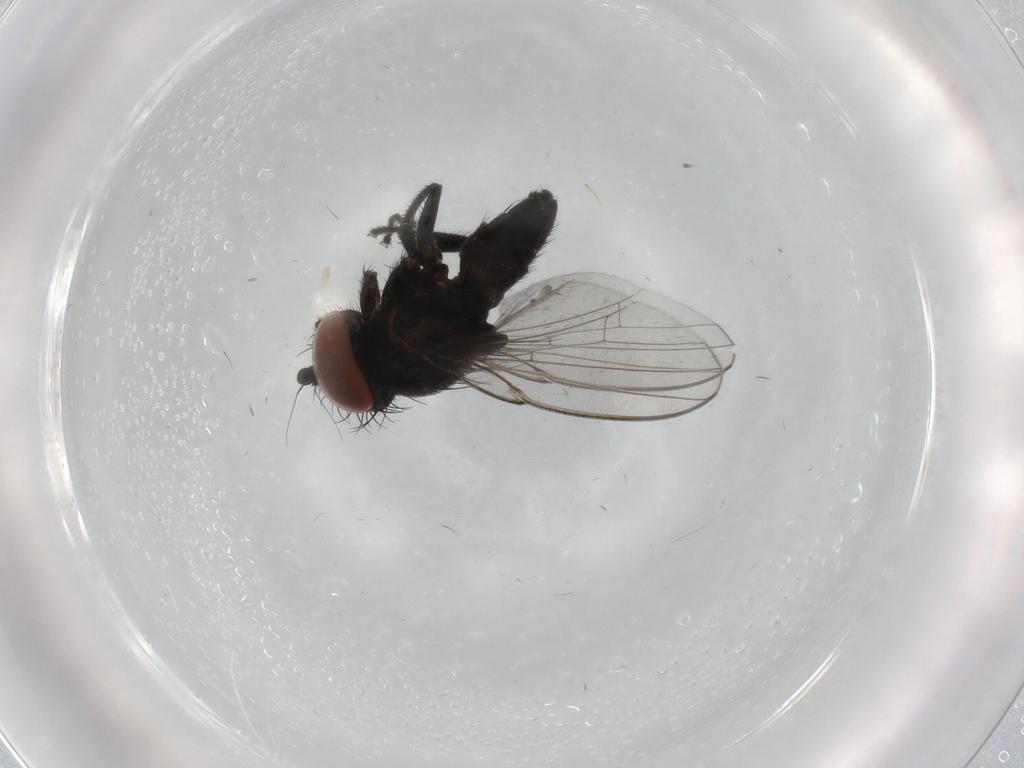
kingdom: Animalia
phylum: Arthropoda
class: Insecta
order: Diptera
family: Milichiidae
